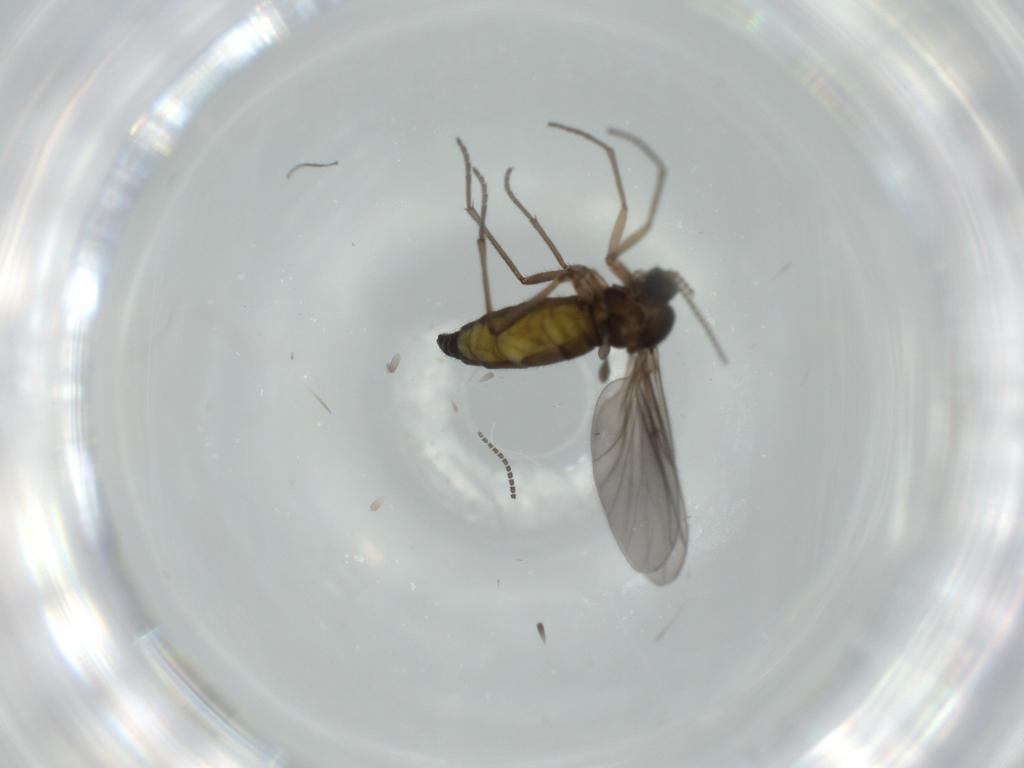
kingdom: Animalia
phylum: Arthropoda
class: Insecta
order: Diptera
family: Sciaridae
